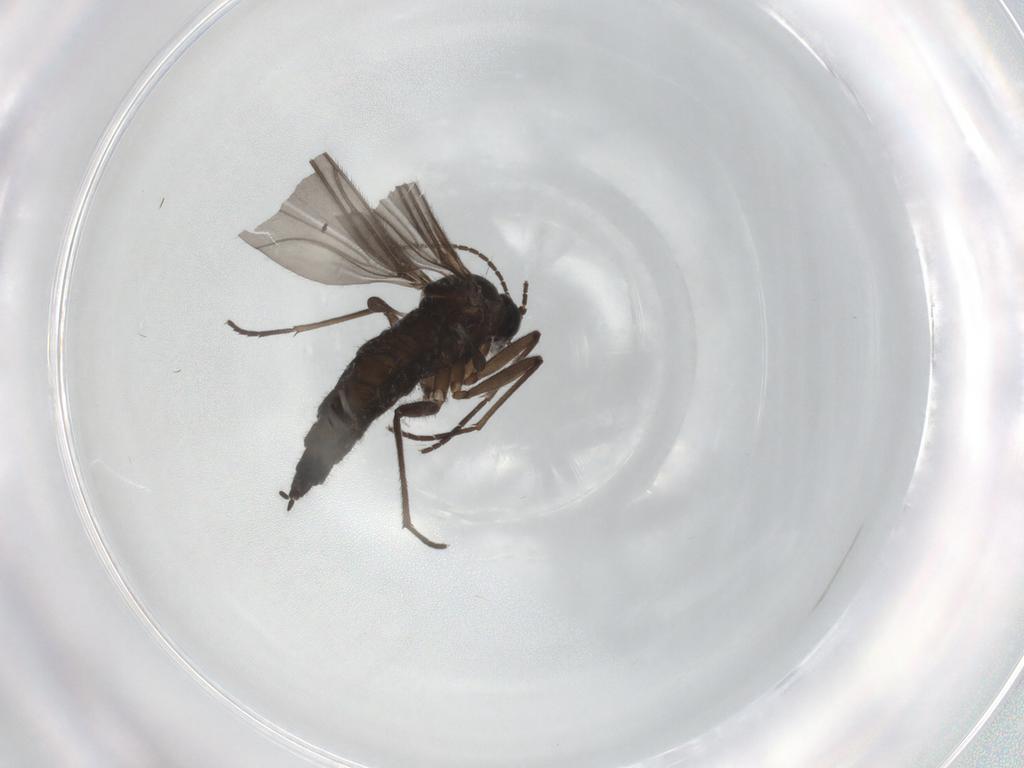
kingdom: Animalia
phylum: Arthropoda
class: Insecta
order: Diptera
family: Sciaridae
